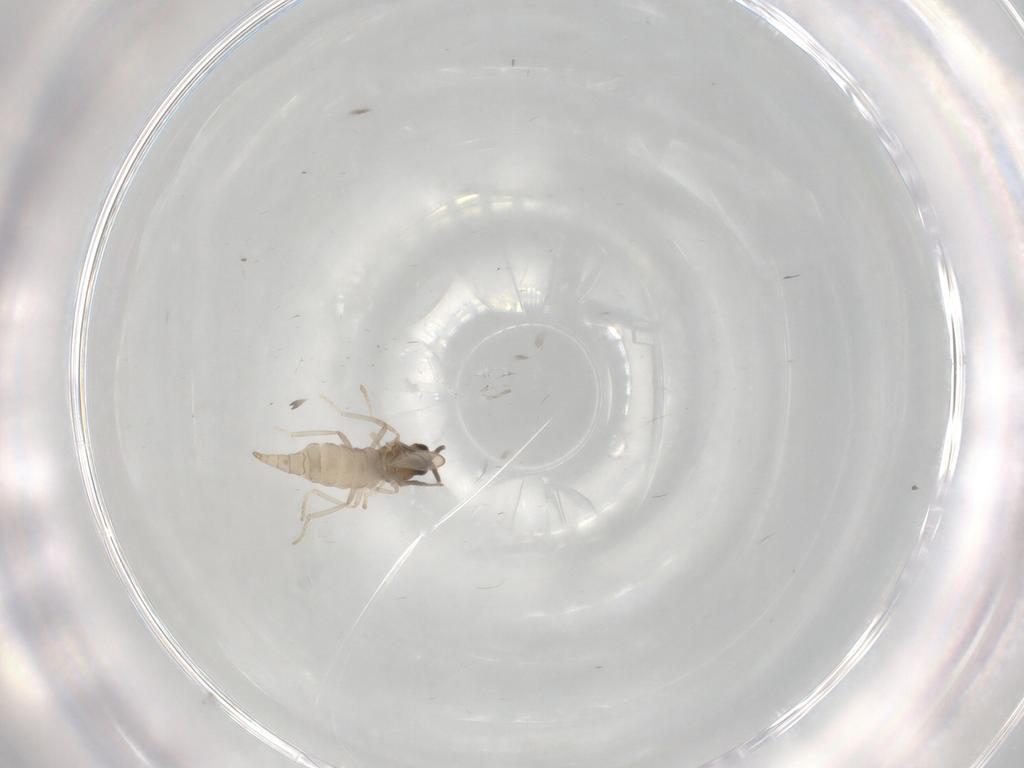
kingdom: Animalia
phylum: Arthropoda
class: Insecta
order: Diptera
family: Cecidomyiidae
